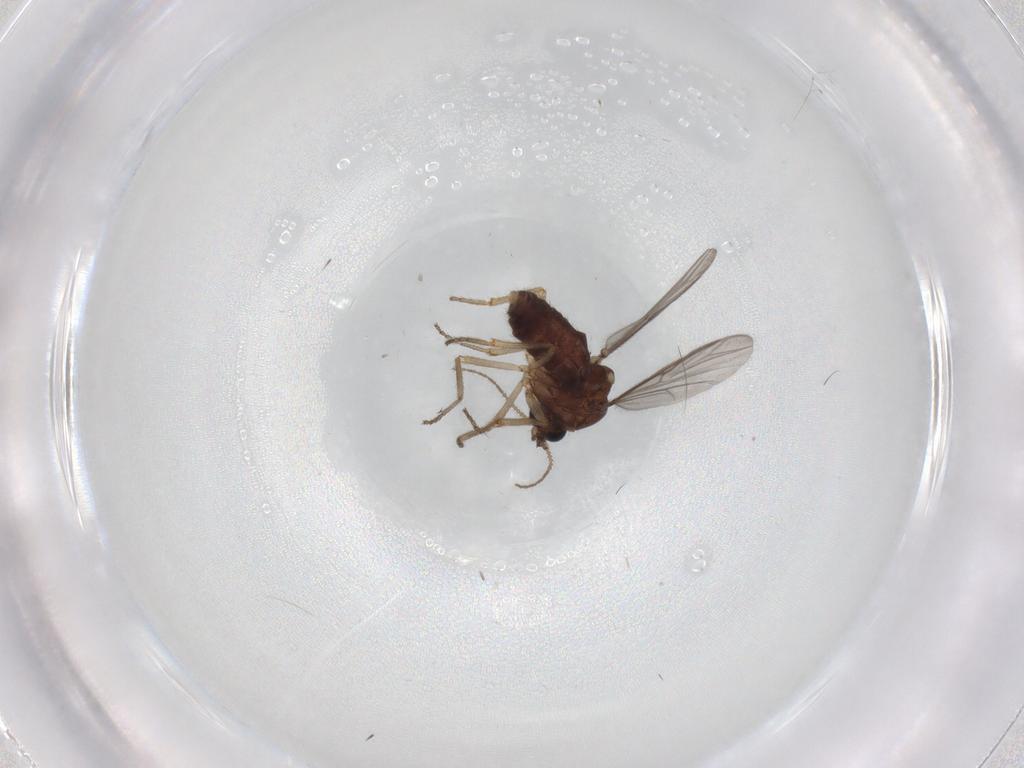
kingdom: Animalia
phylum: Arthropoda
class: Insecta
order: Diptera
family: Ceratopogonidae
